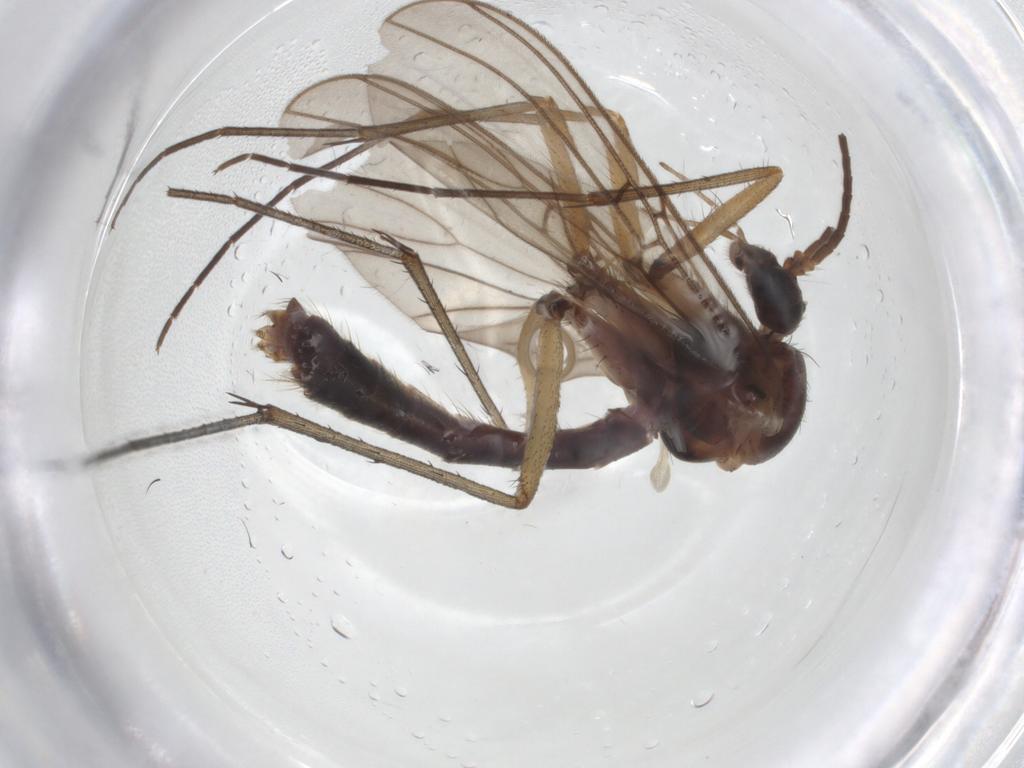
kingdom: Animalia
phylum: Arthropoda
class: Insecta
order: Diptera
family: Mycetophilidae
